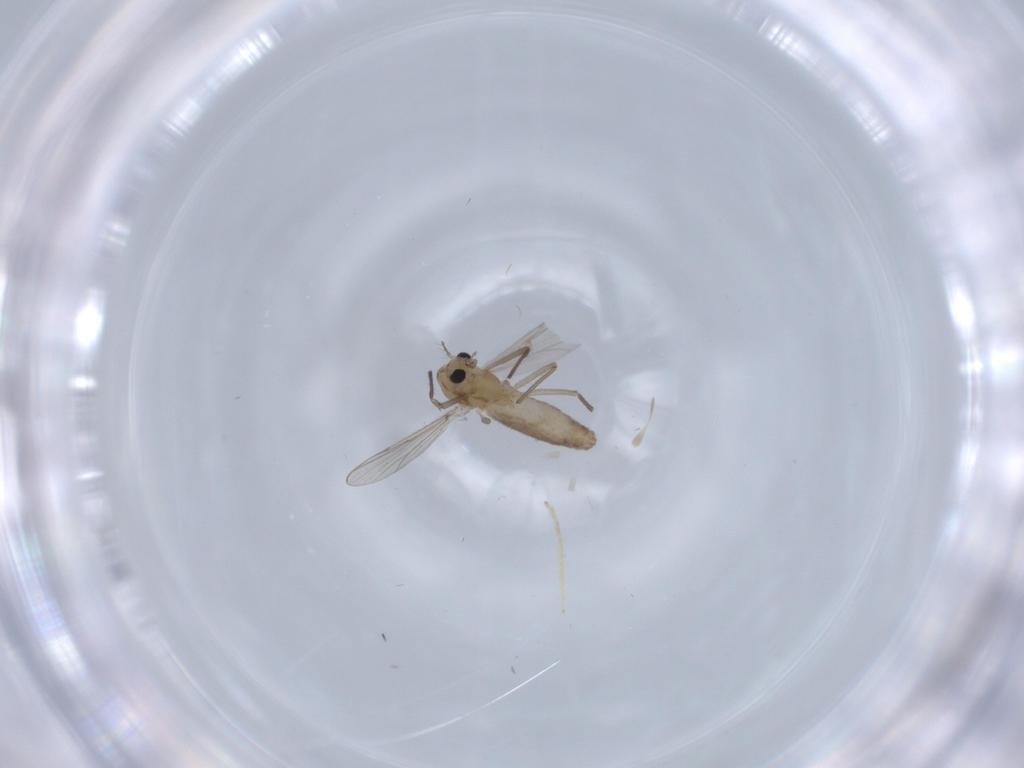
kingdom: Animalia
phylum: Arthropoda
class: Insecta
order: Diptera
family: Chironomidae
